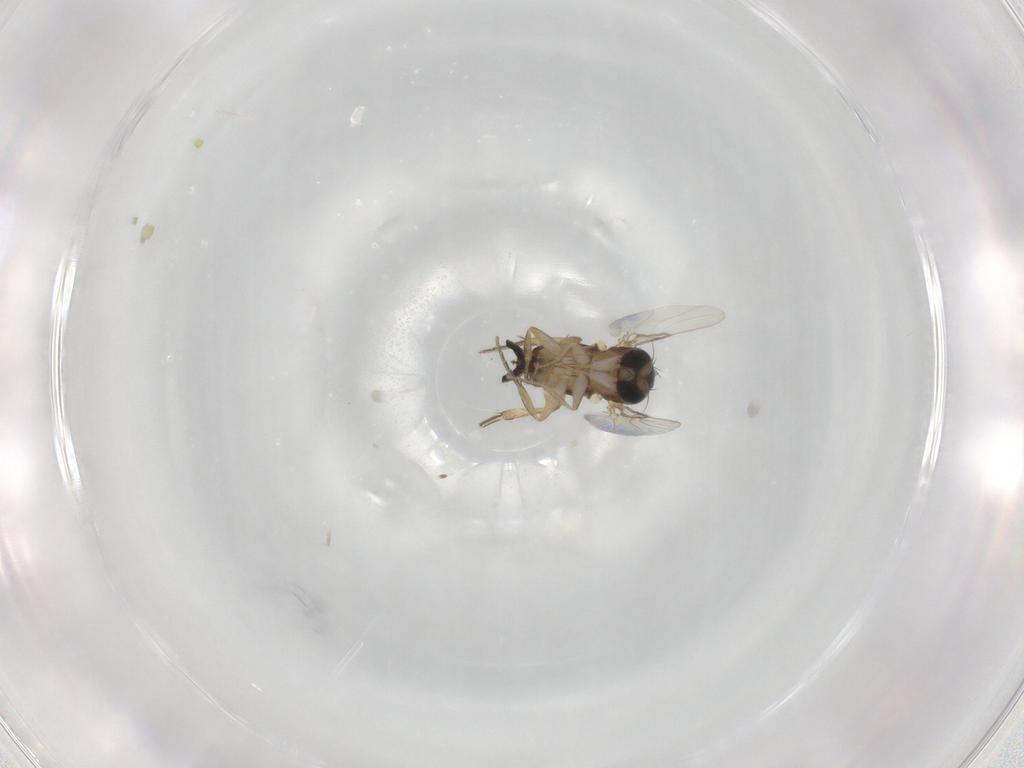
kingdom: Animalia
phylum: Arthropoda
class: Insecta
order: Diptera
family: Phoridae
